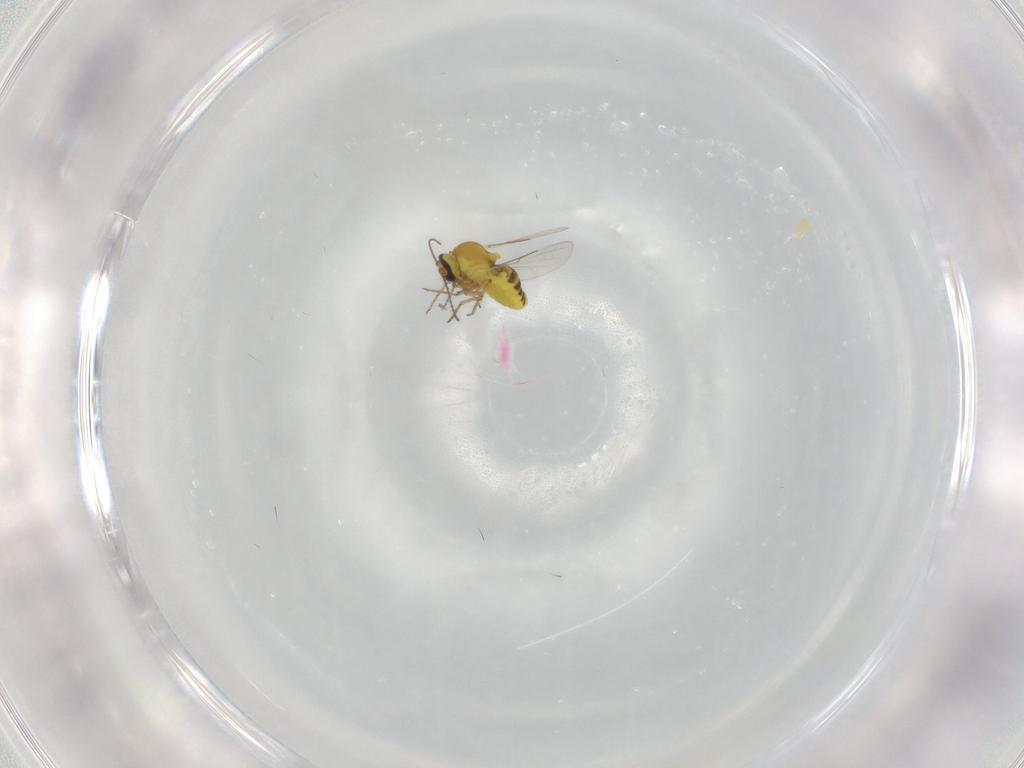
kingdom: Animalia
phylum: Arthropoda
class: Insecta
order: Diptera
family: Ceratopogonidae
